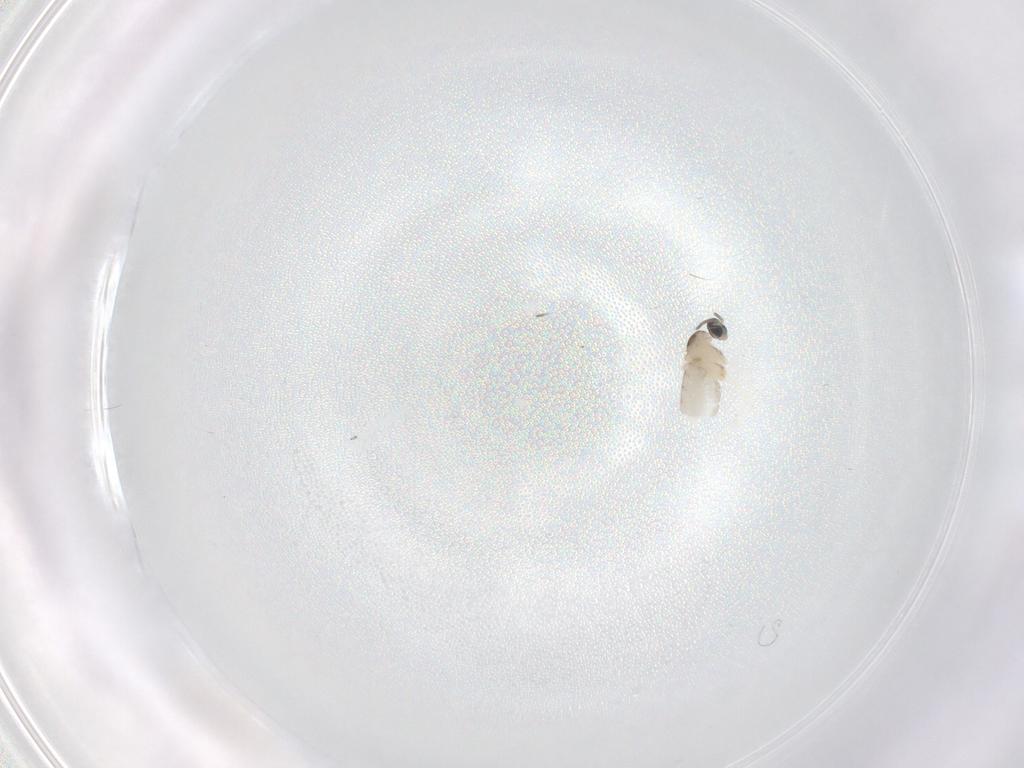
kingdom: Animalia
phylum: Arthropoda
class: Insecta
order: Diptera
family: Cecidomyiidae
